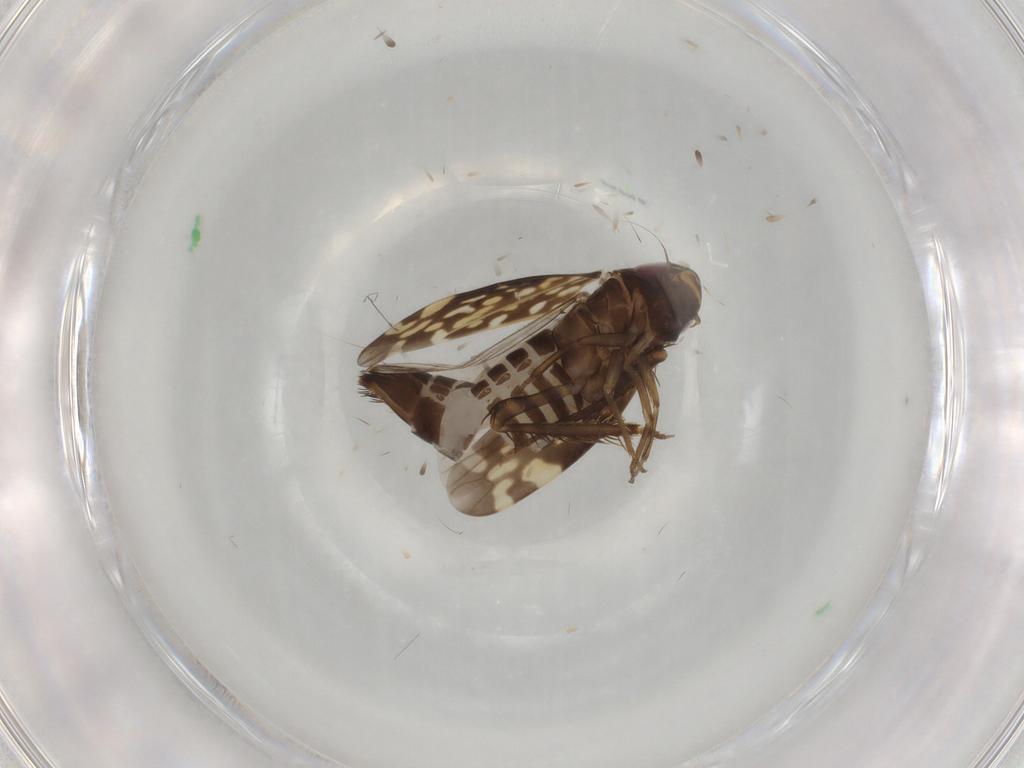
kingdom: Animalia
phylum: Arthropoda
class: Insecta
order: Hemiptera
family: Cicadellidae
